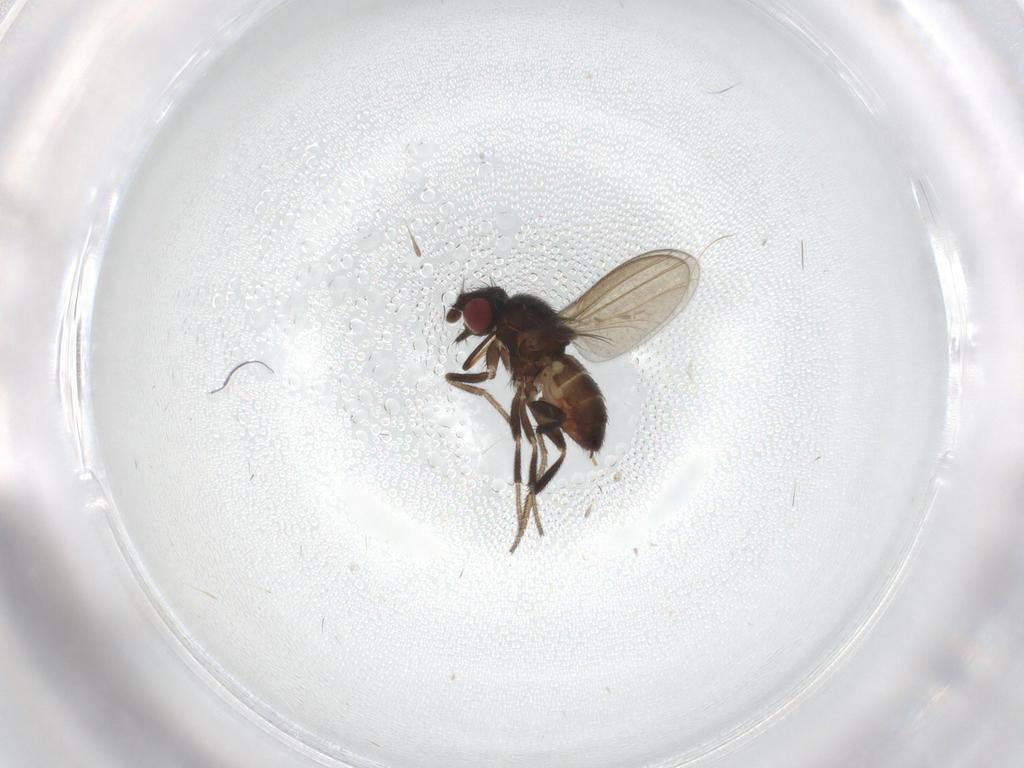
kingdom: Animalia
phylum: Arthropoda
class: Insecta
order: Diptera
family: Milichiidae
